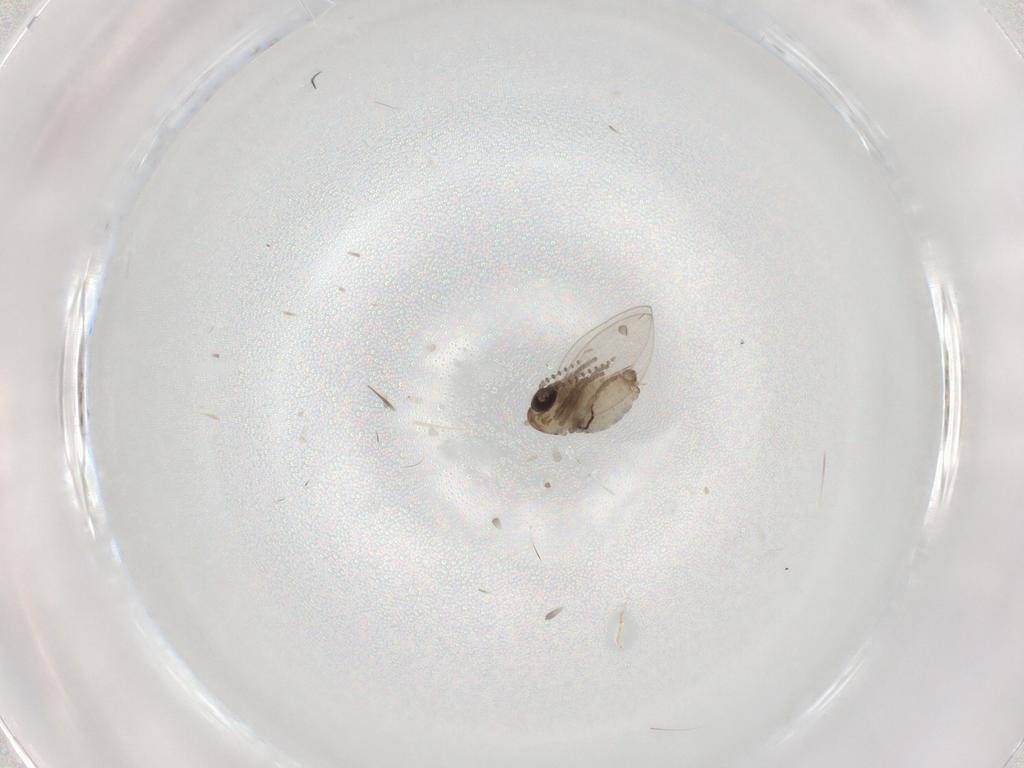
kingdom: Animalia
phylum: Arthropoda
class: Insecta
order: Diptera
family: Psychodidae
